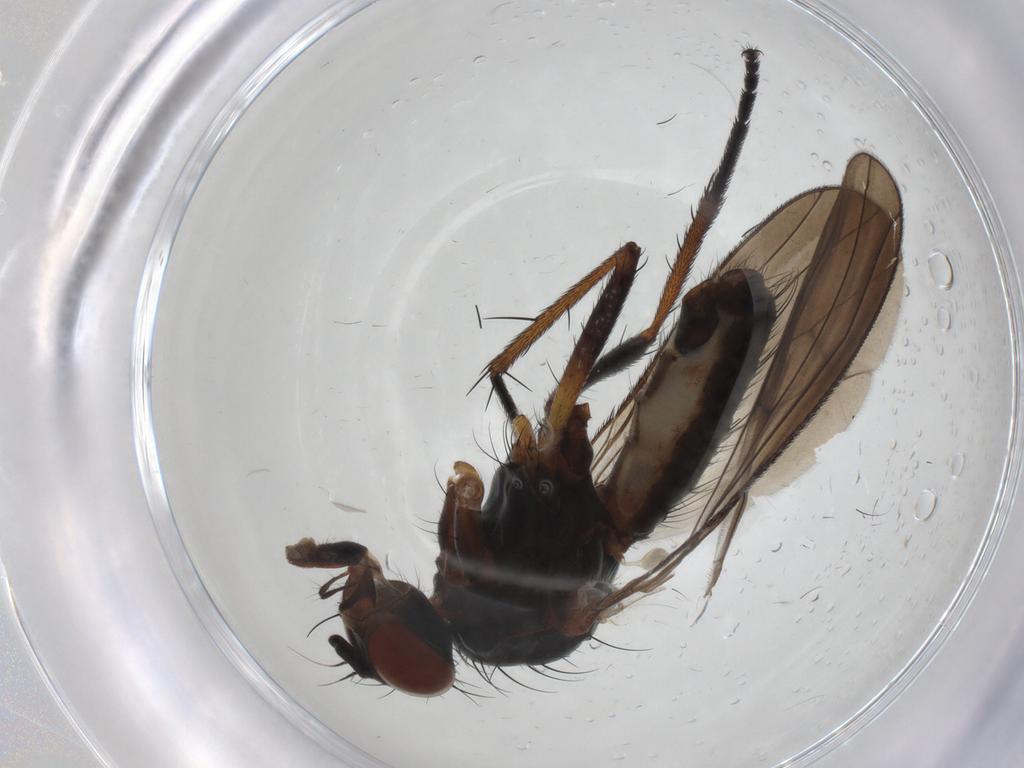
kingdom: Animalia
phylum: Arthropoda
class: Insecta
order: Diptera
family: Anthomyiidae
